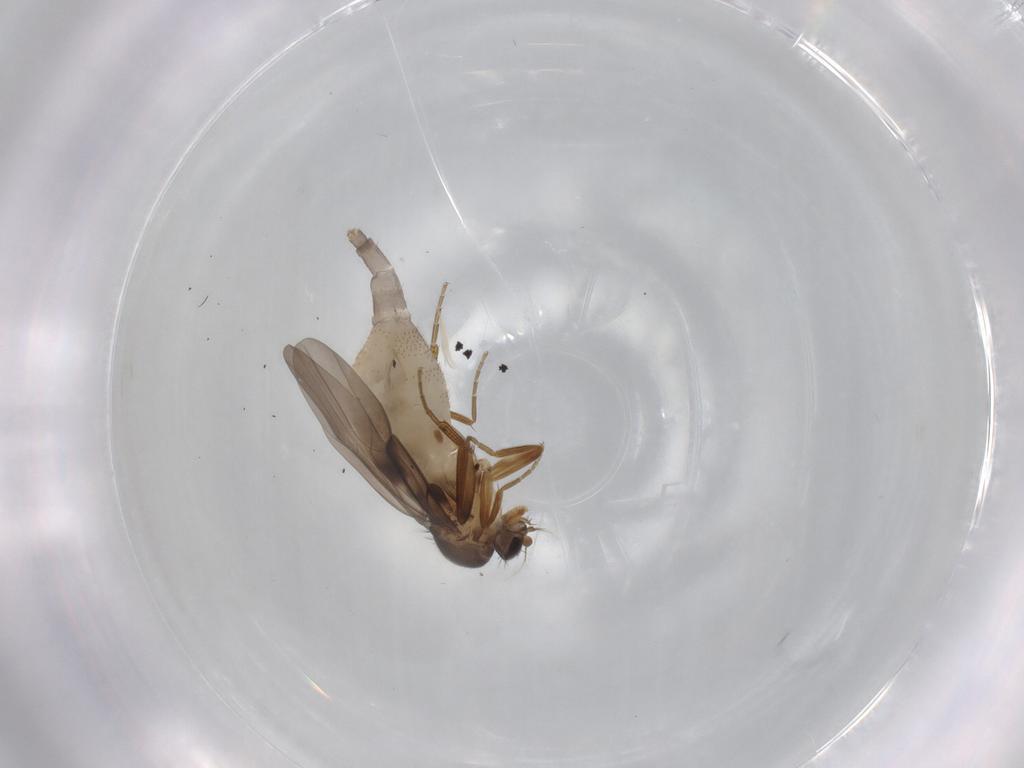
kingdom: Animalia
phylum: Arthropoda
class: Insecta
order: Diptera
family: Phoridae
